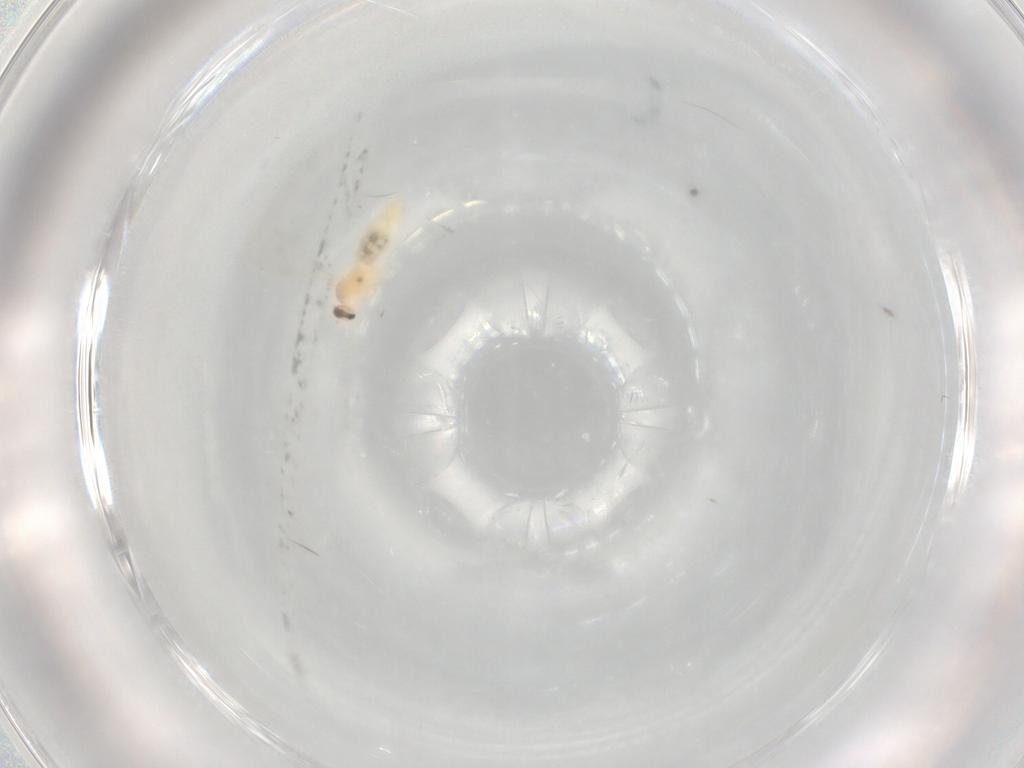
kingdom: Animalia
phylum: Arthropoda
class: Insecta
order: Diptera
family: Cecidomyiidae
